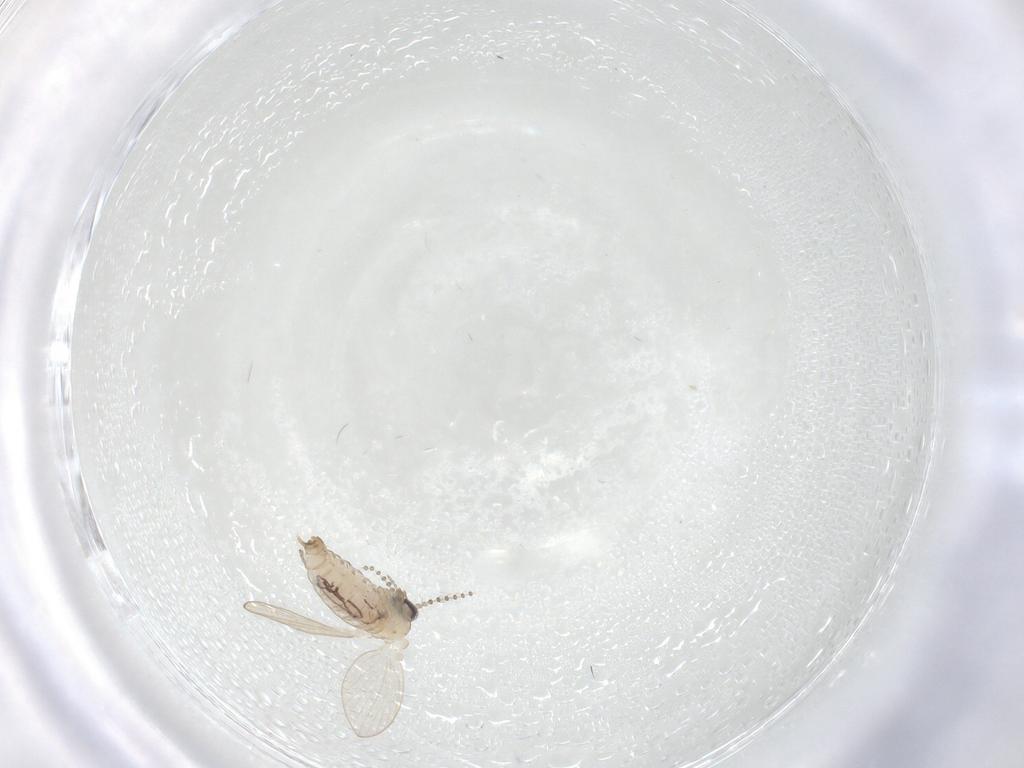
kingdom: Animalia
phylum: Arthropoda
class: Insecta
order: Diptera
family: Psychodidae
